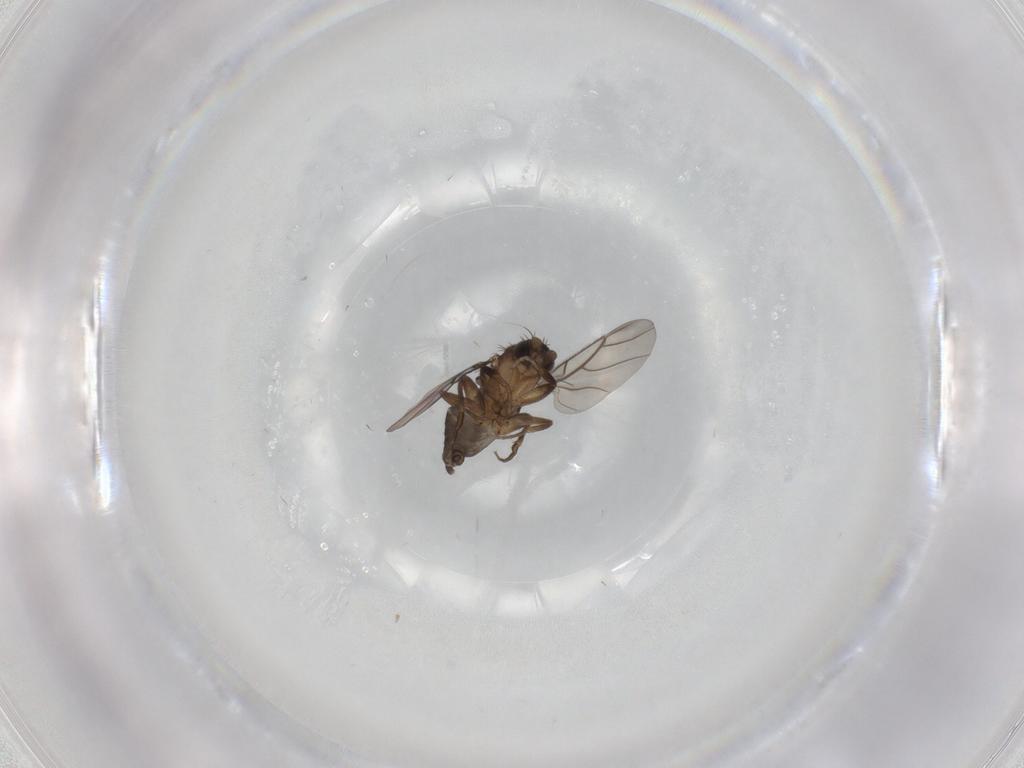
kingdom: Animalia
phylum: Arthropoda
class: Insecta
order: Diptera
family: Phoridae
